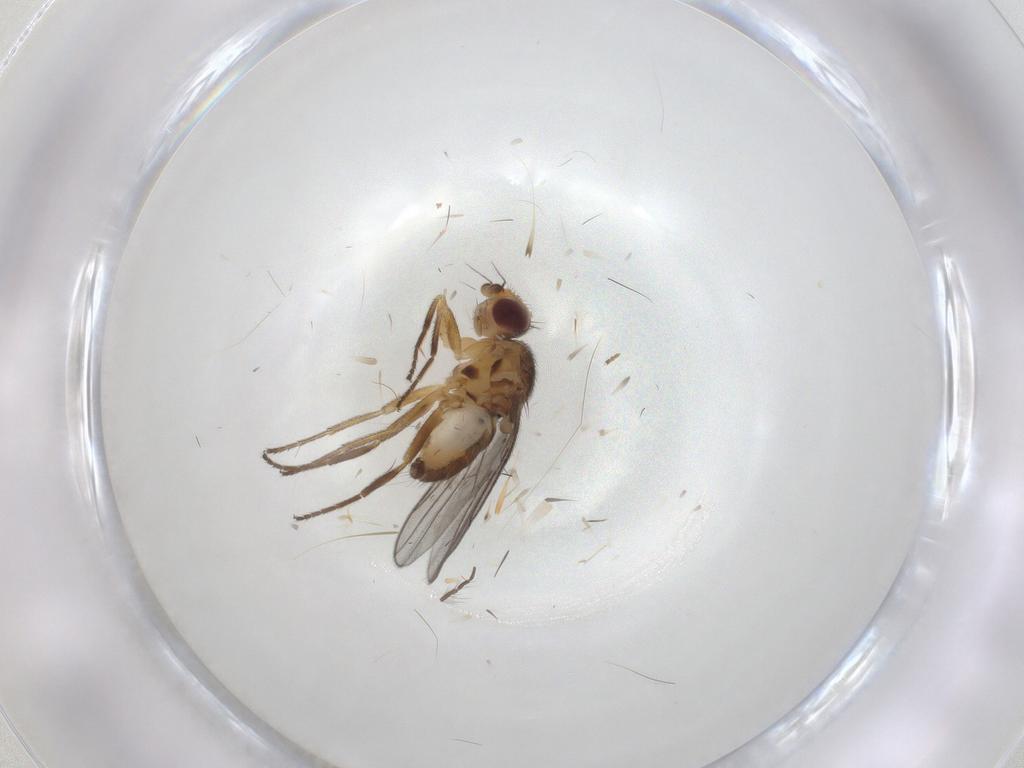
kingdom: Animalia
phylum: Arthropoda
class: Insecta
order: Diptera
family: Chloropidae
